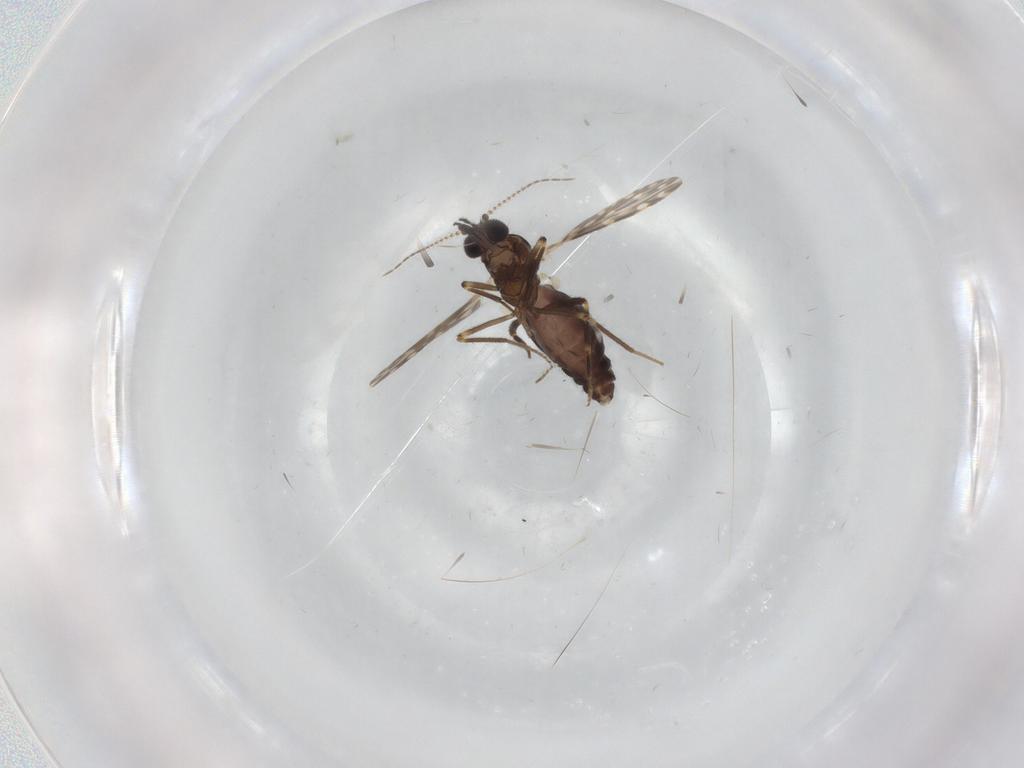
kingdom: Animalia
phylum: Arthropoda
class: Insecta
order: Diptera
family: Ceratopogonidae
